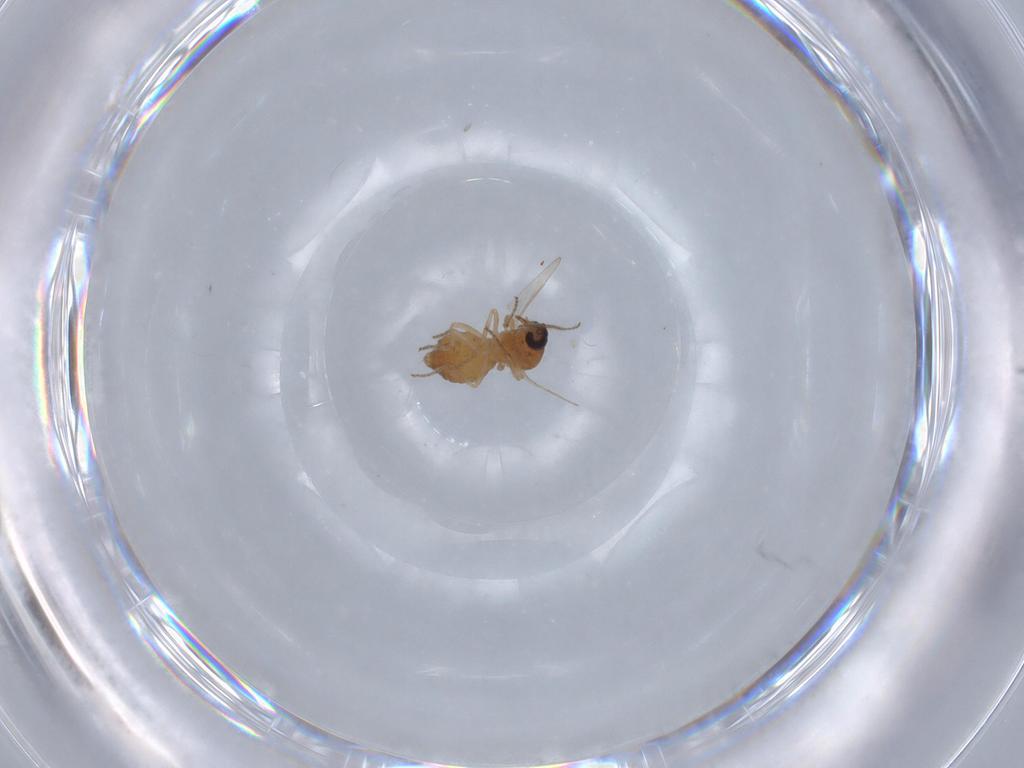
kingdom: Animalia
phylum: Arthropoda
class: Insecta
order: Diptera
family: Ceratopogonidae
